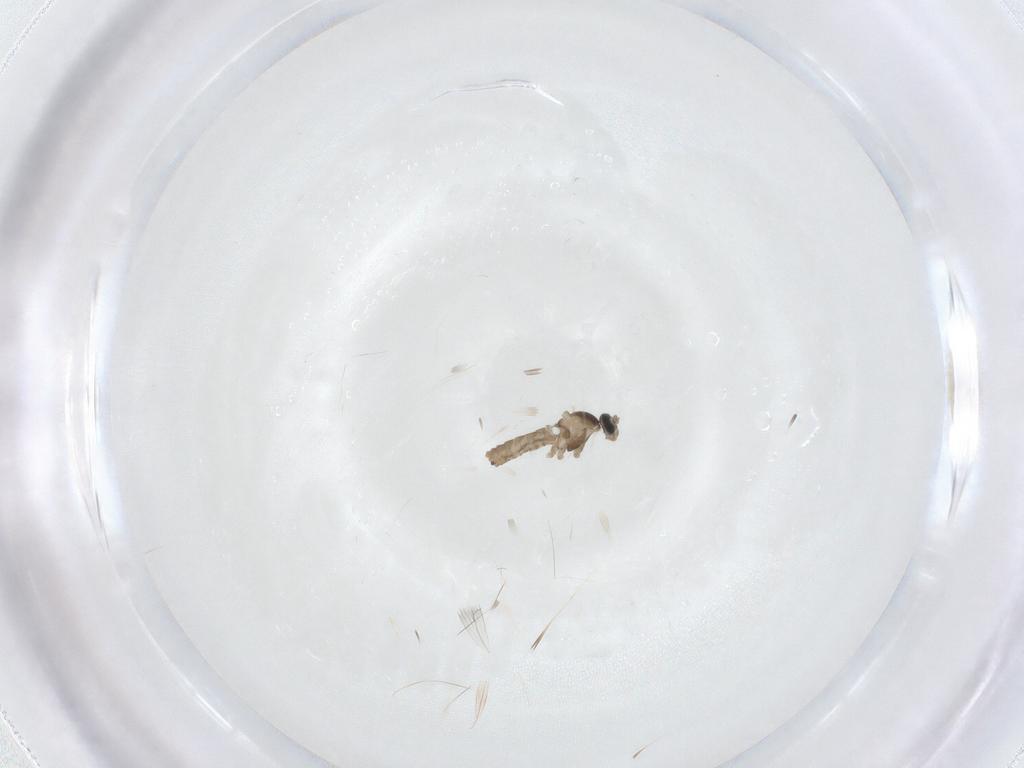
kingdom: Animalia
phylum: Arthropoda
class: Insecta
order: Diptera
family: Cecidomyiidae
